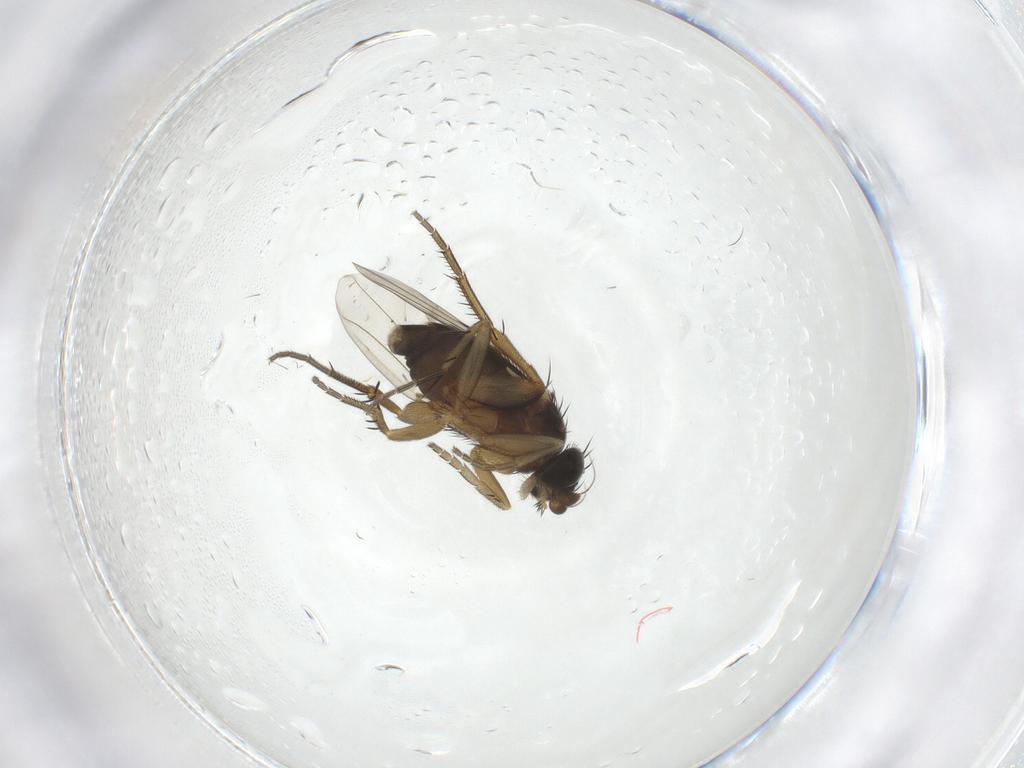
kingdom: Animalia
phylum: Arthropoda
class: Insecta
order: Diptera
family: Phoridae
